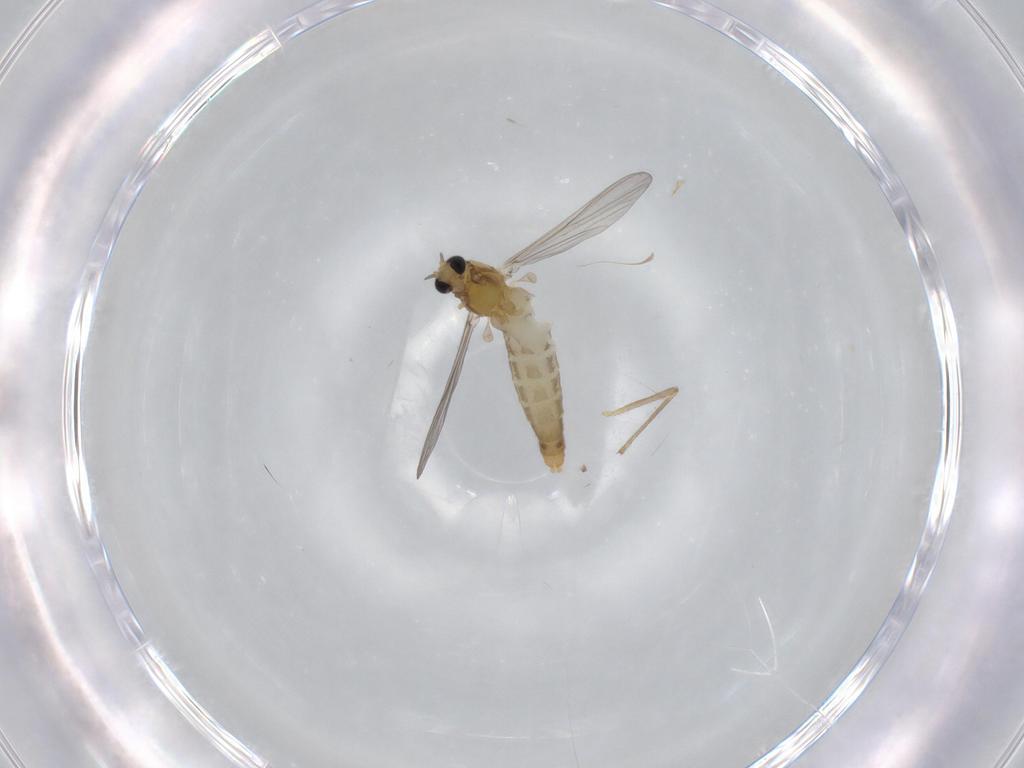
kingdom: Animalia
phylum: Arthropoda
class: Insecta
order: Diptera
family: Chironomidae
